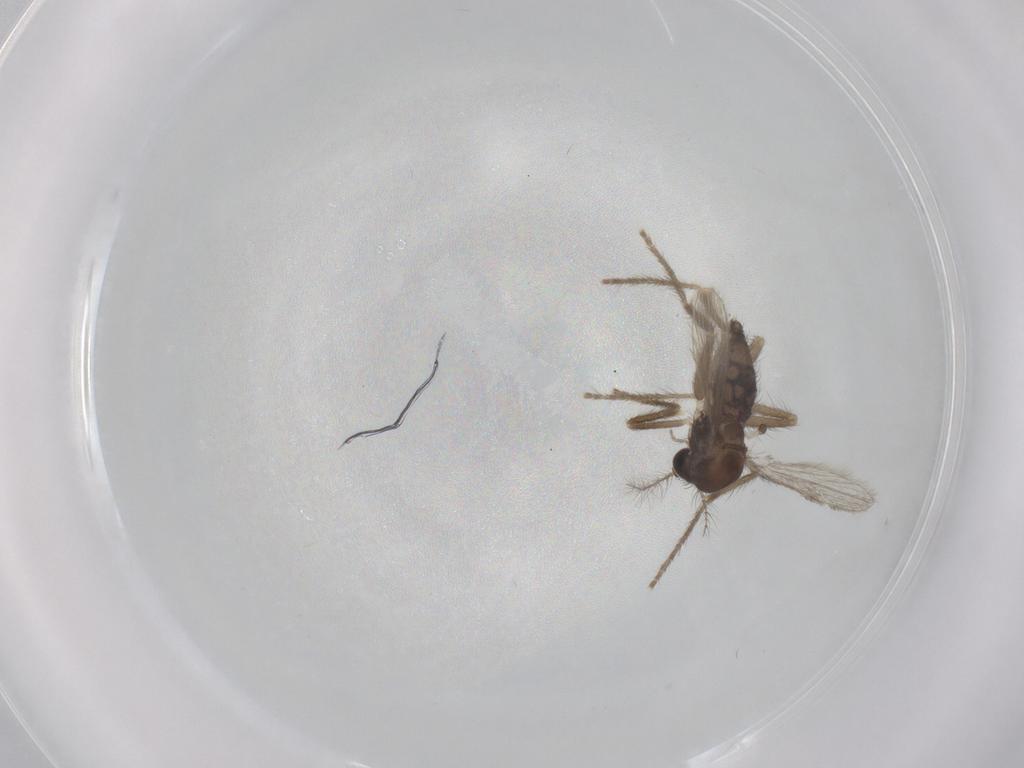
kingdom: Animalia
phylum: Arthropoda
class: Insecta
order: Diptera
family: Corethrellidae
